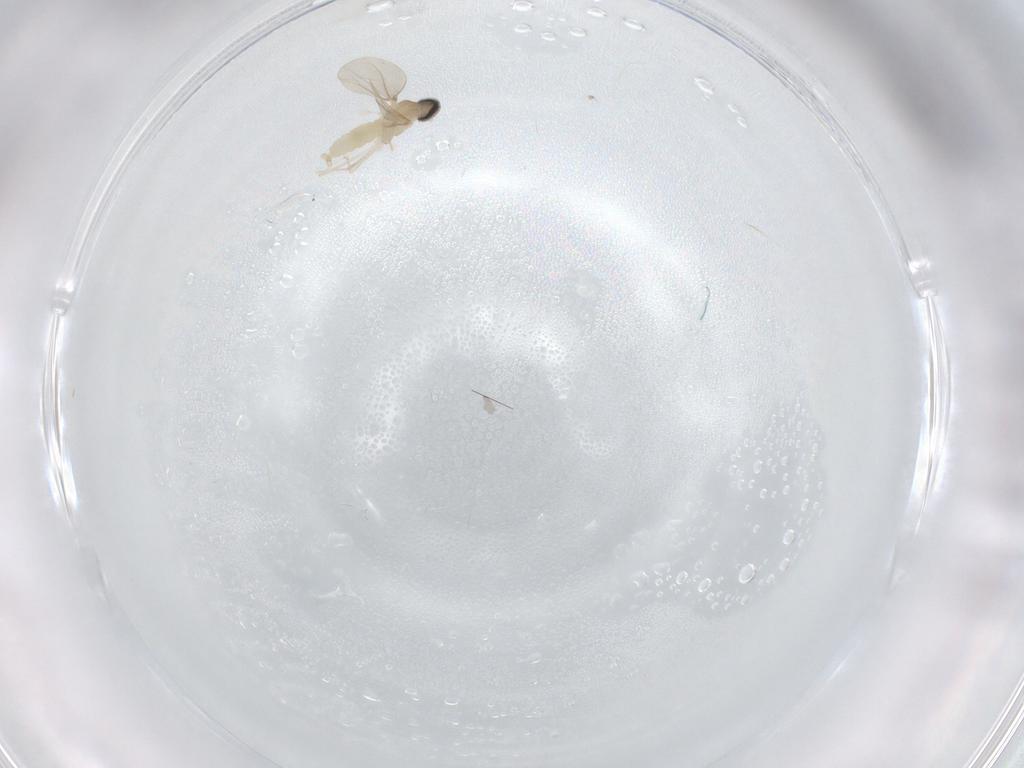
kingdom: Animalia
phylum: Arthropoda
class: Insecta
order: Diptera
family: Cecidomyiidae
